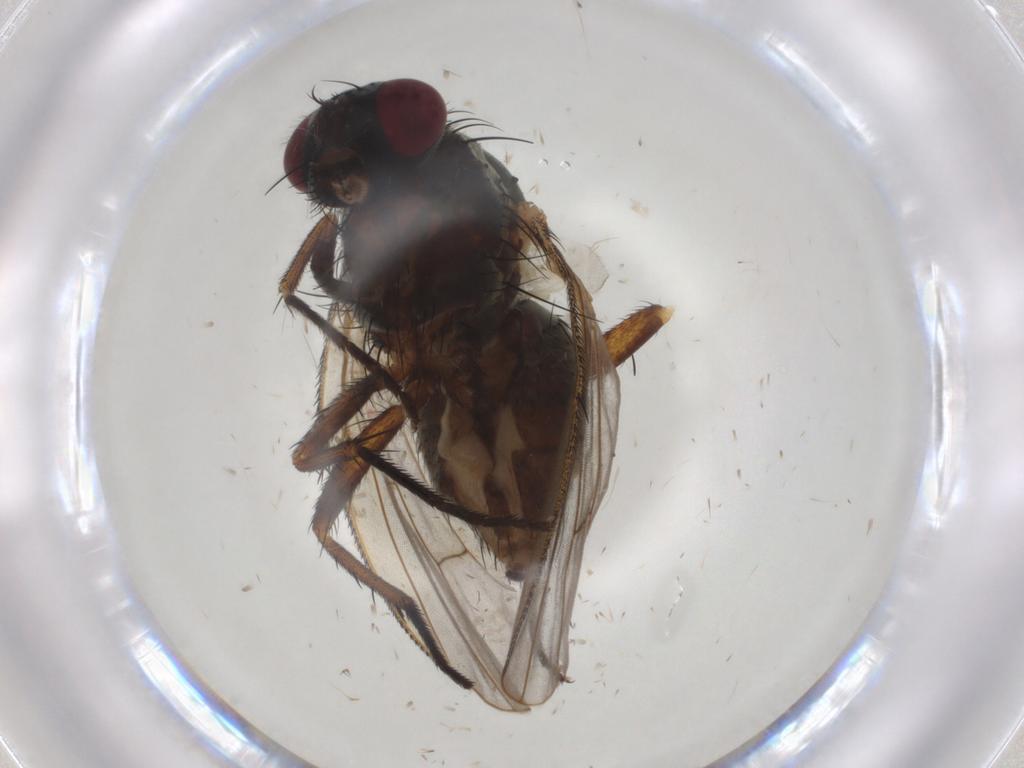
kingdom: Animalia
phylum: Arthropoda
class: Insecta
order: Diptera
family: Muscidae
